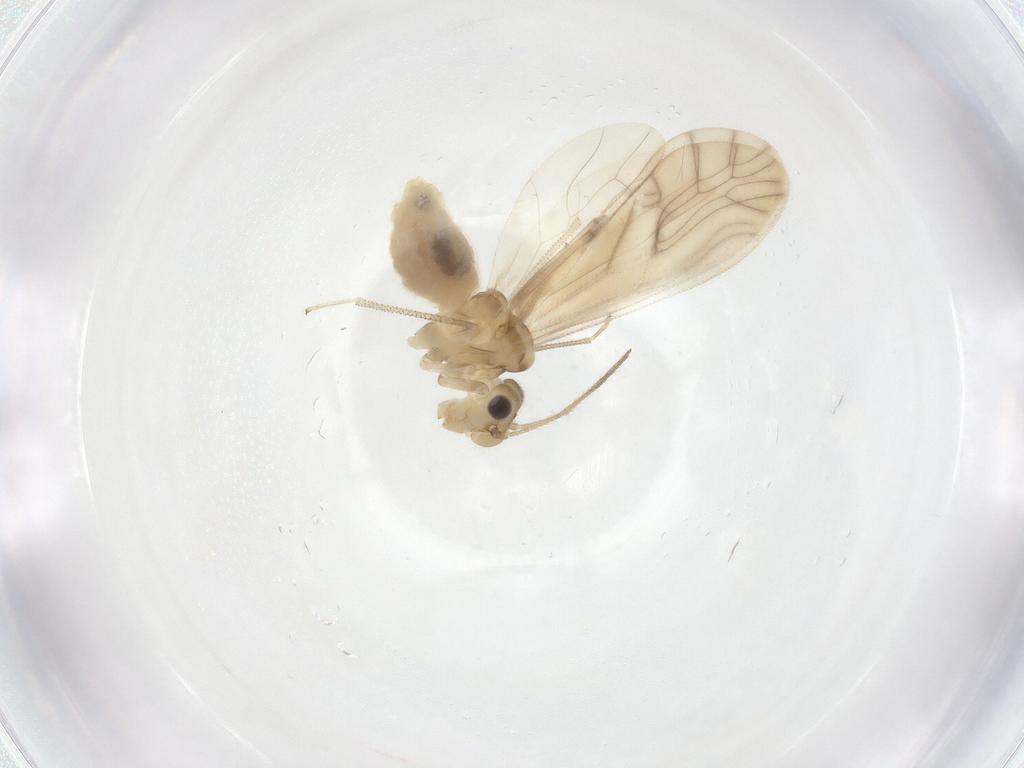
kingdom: Animalia
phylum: Arthropoda
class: Insecta
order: Psocodea
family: Caeciliusidae
